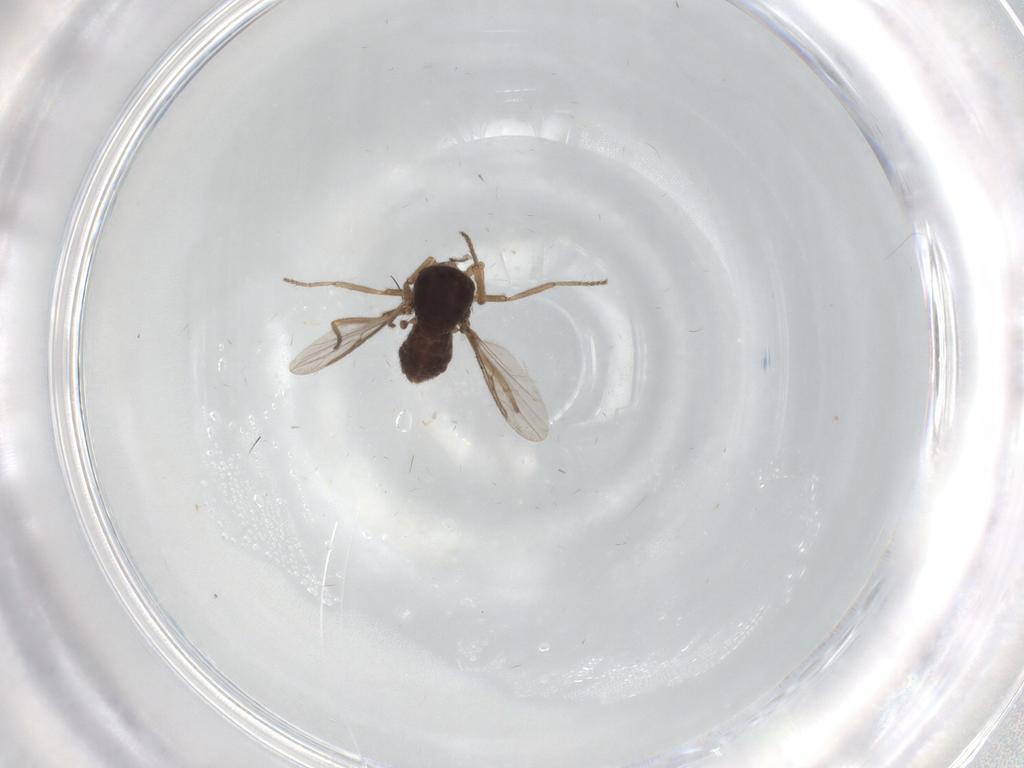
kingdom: Animalia
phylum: Arthropoda
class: Insecta
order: Diptera
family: Ceratopogonidae
